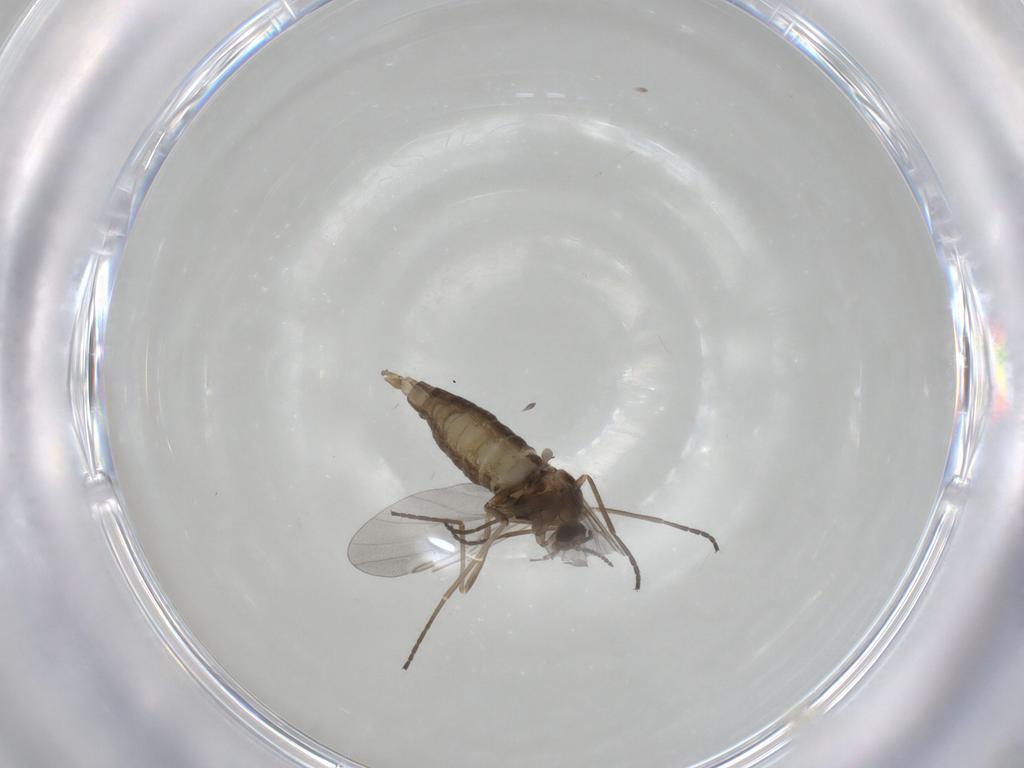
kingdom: Animalia
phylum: Arthropoda
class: Insecta
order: Diptera
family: Cecidomyiidae
